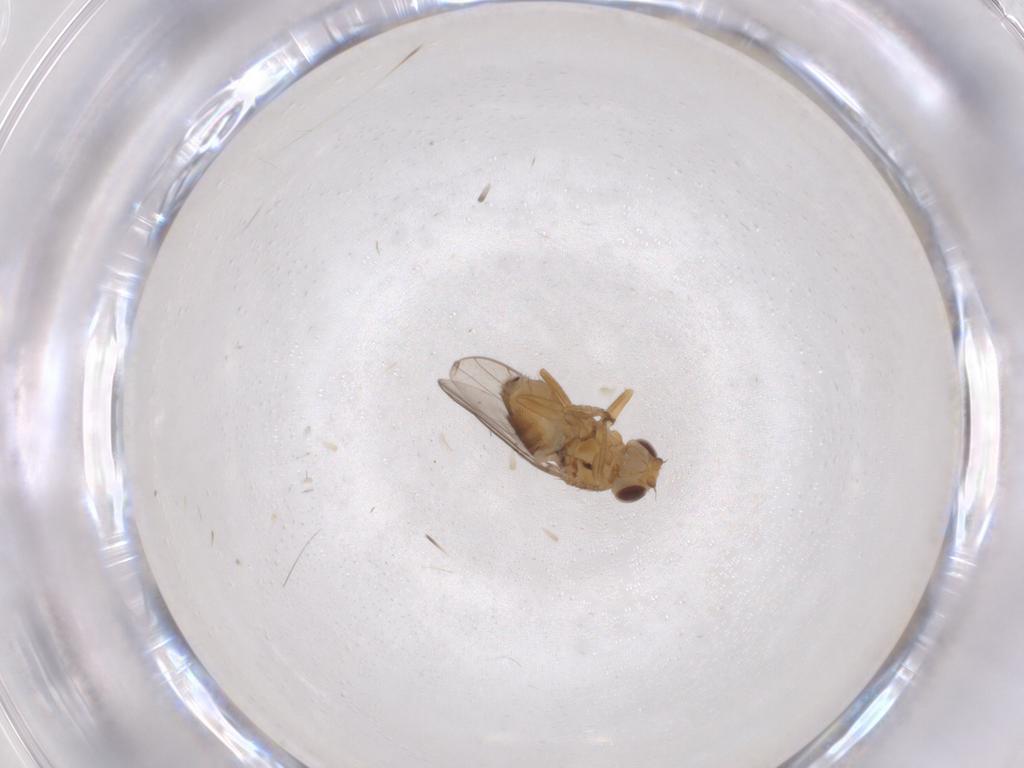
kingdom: Animalia
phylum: Arthropoda
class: Insecta
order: Diptera
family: Chloropidae
